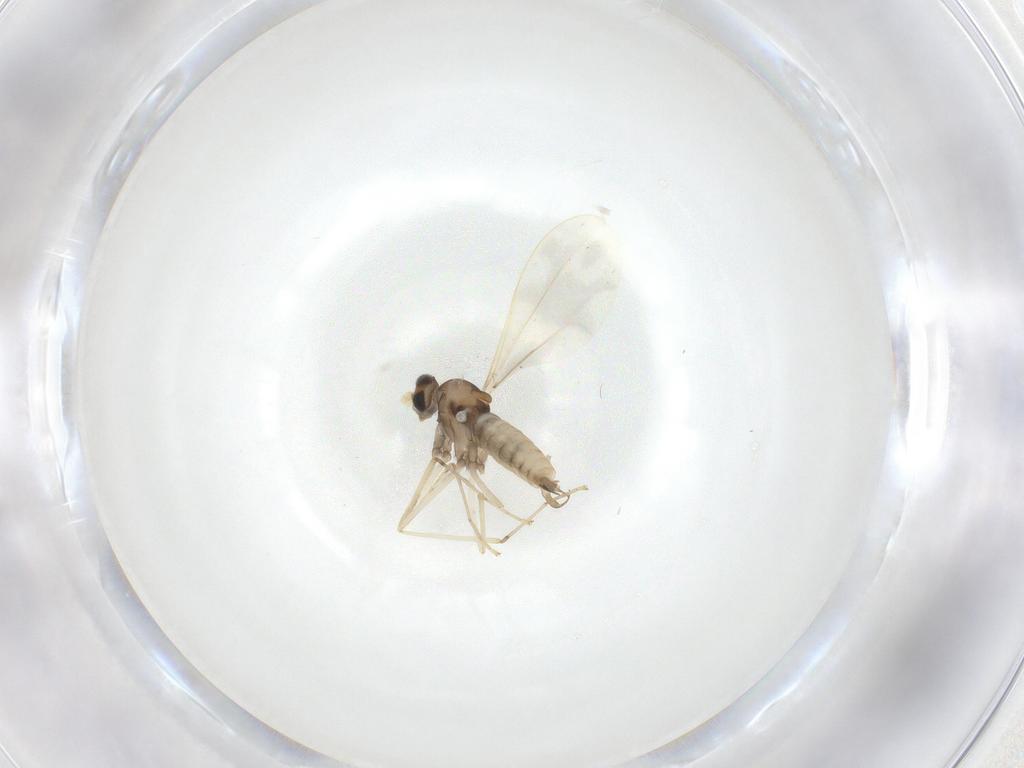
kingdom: Animalia
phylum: Arthropoda
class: Insecta
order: Diptera
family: Cecidomyiidae
